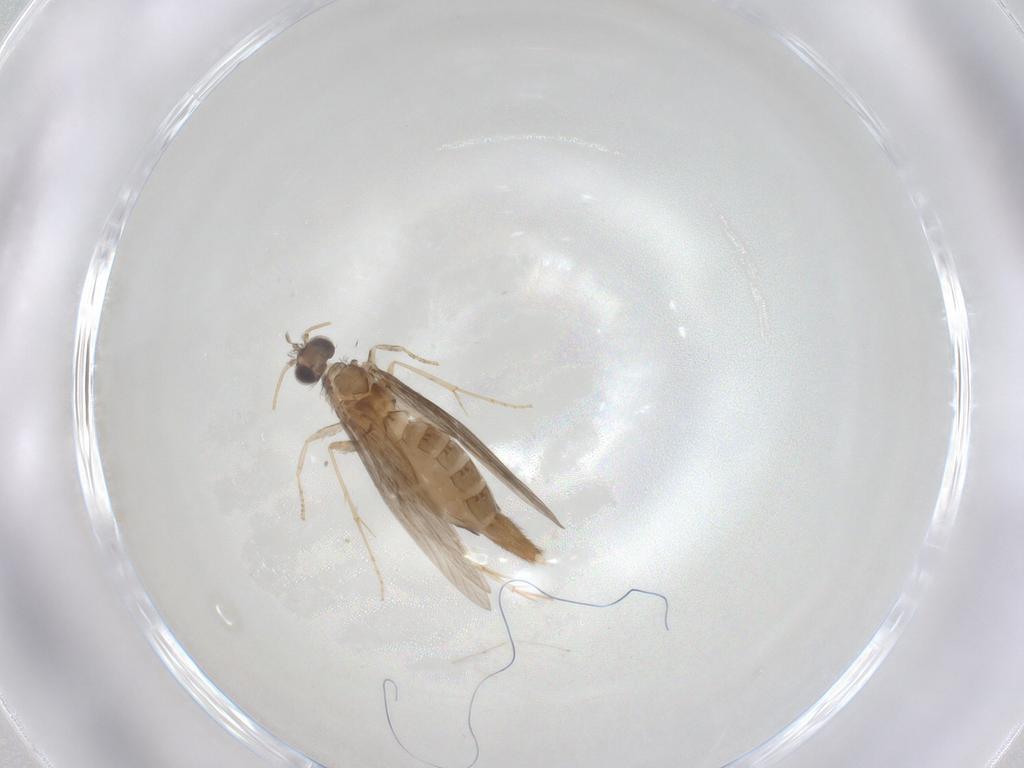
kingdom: Animalia
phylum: Arthropoda
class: Insecta
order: Trichoptera
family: Hydroptilidae
